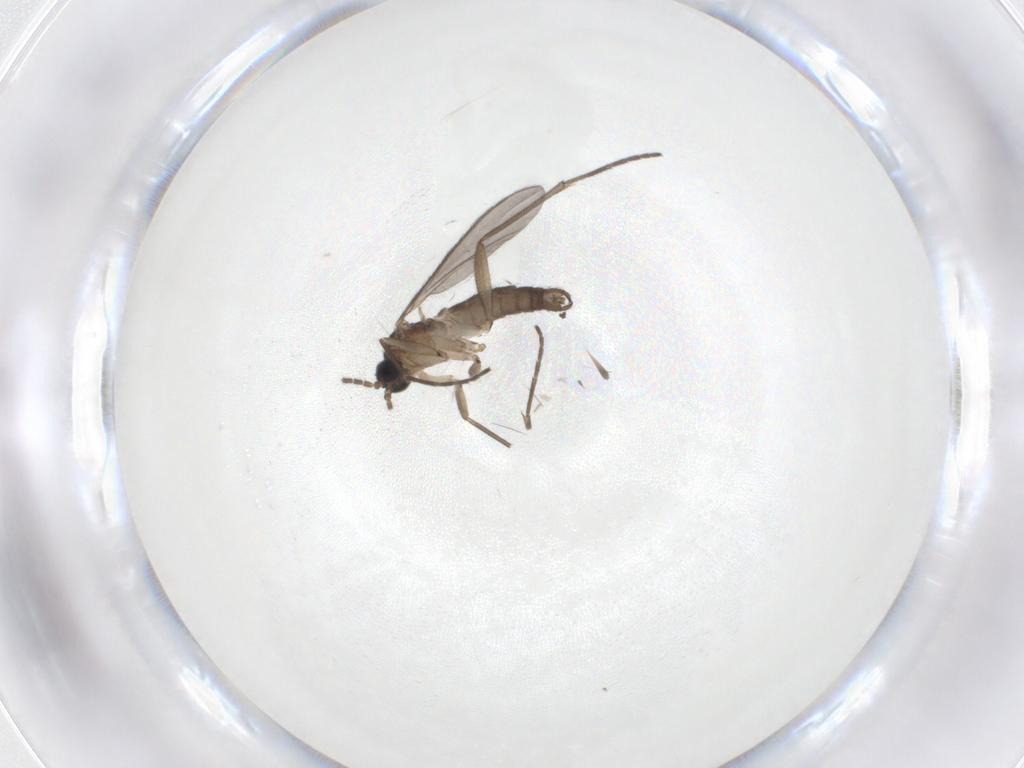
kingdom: Animalia
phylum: Arthropoda
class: Insecta
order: Diptera
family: Sciaridae
